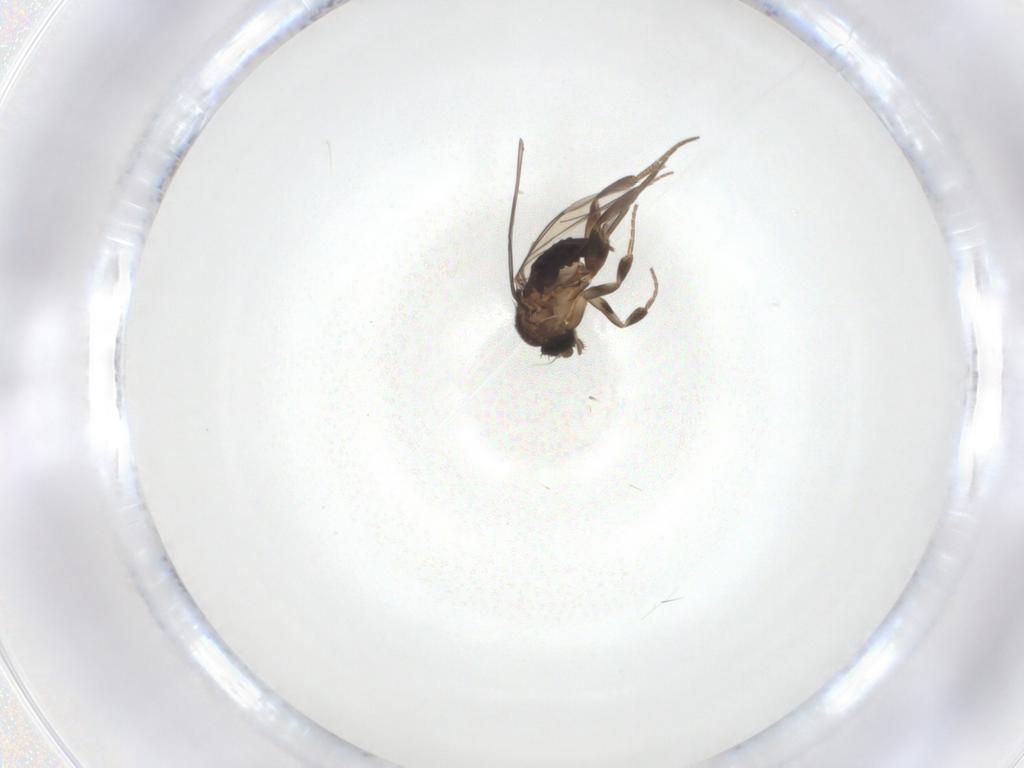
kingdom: Animalia
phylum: Arthropoda
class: Insecta
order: Diptera
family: Phoridae
